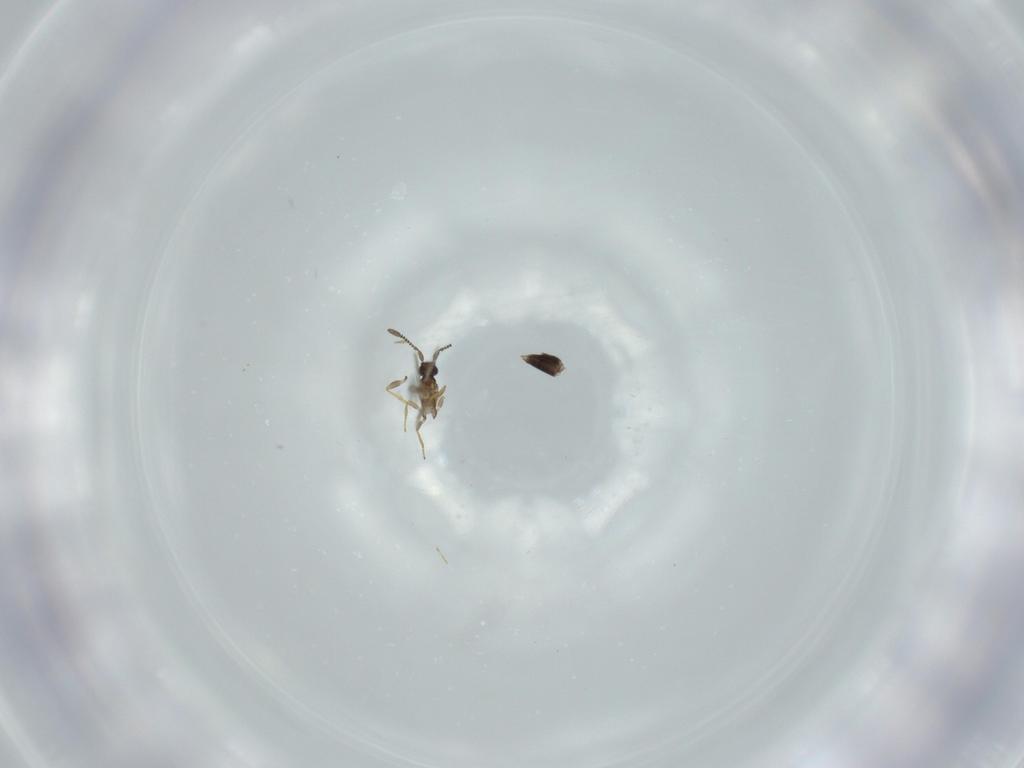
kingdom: Animalia
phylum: Arthropoda
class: Insecta
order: Hymenoptera
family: Mymaridae
